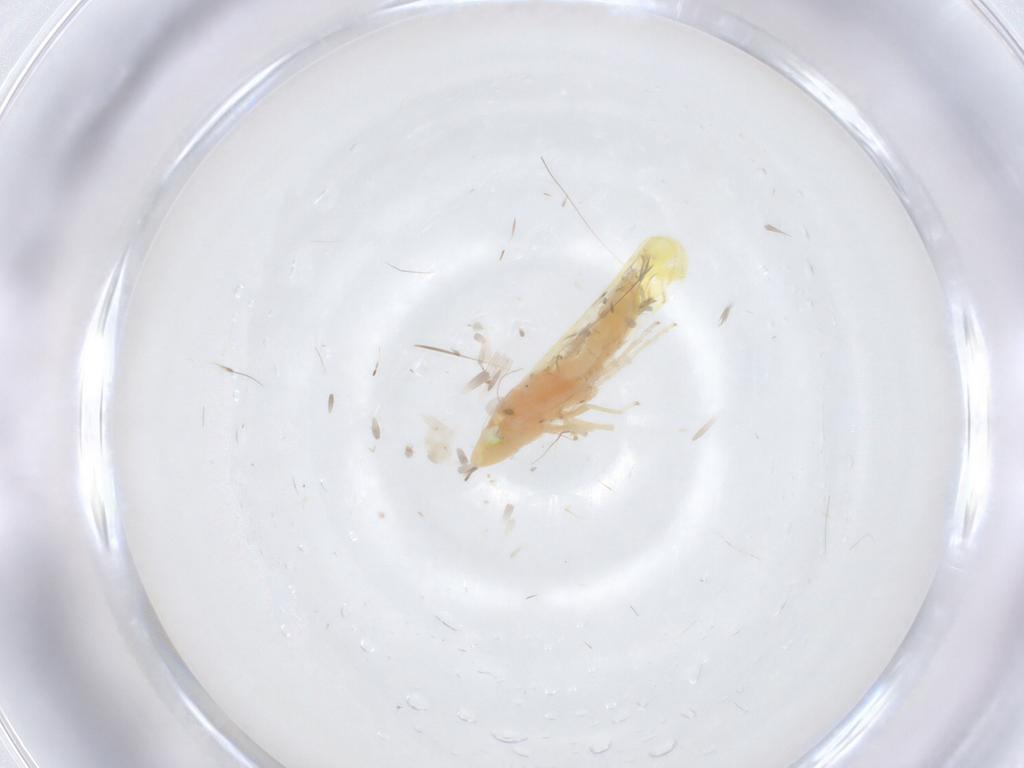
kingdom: Animalia
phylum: Arthropoda
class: Insecta
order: Hemiptera
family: Cicadellidae
